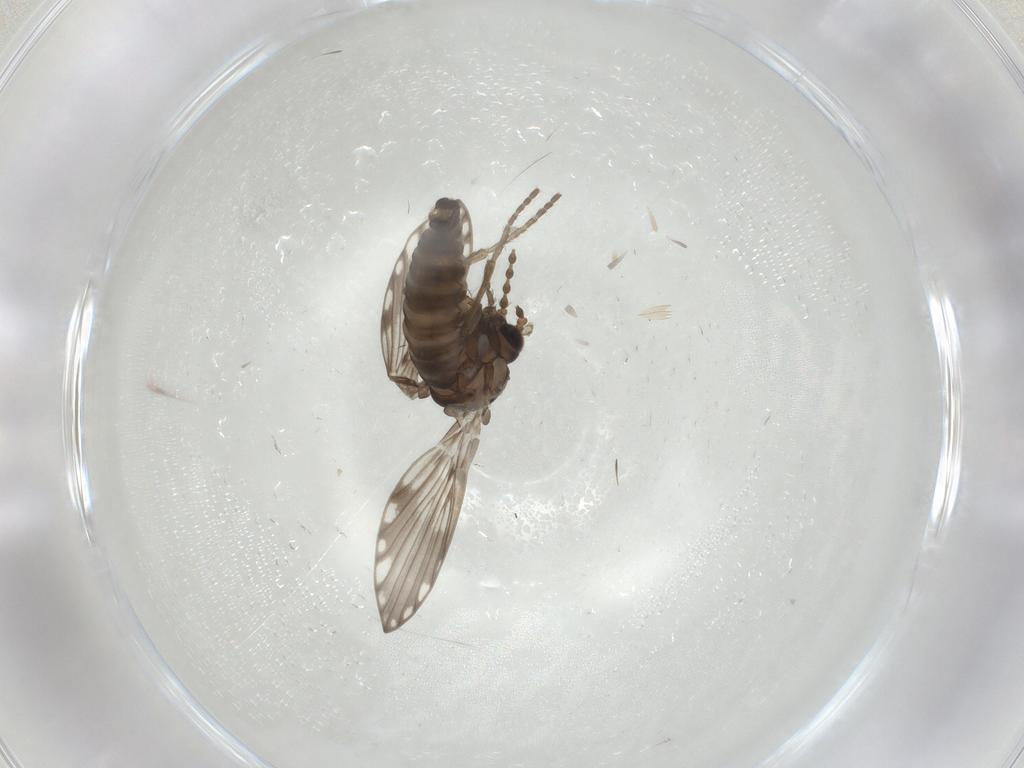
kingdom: Animalia
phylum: Arthropoda
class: Insecta
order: Diptera
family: Psychodidae
